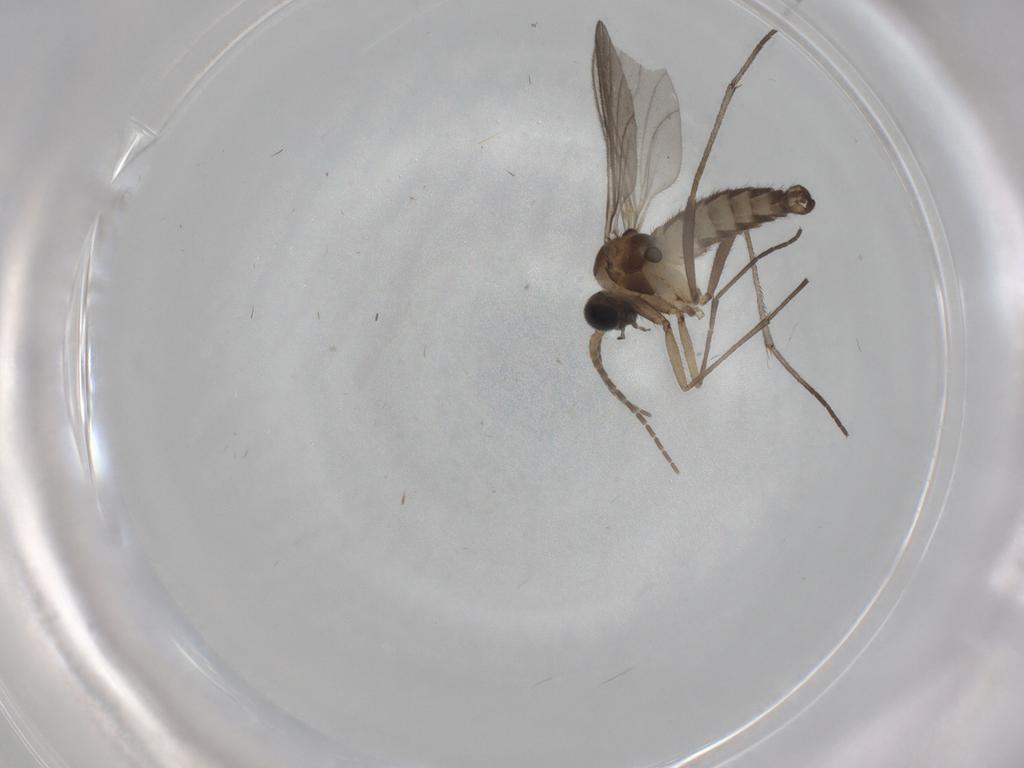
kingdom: Animalia
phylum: Arthropoda
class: Insecta
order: Diptera
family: Sciaridae
